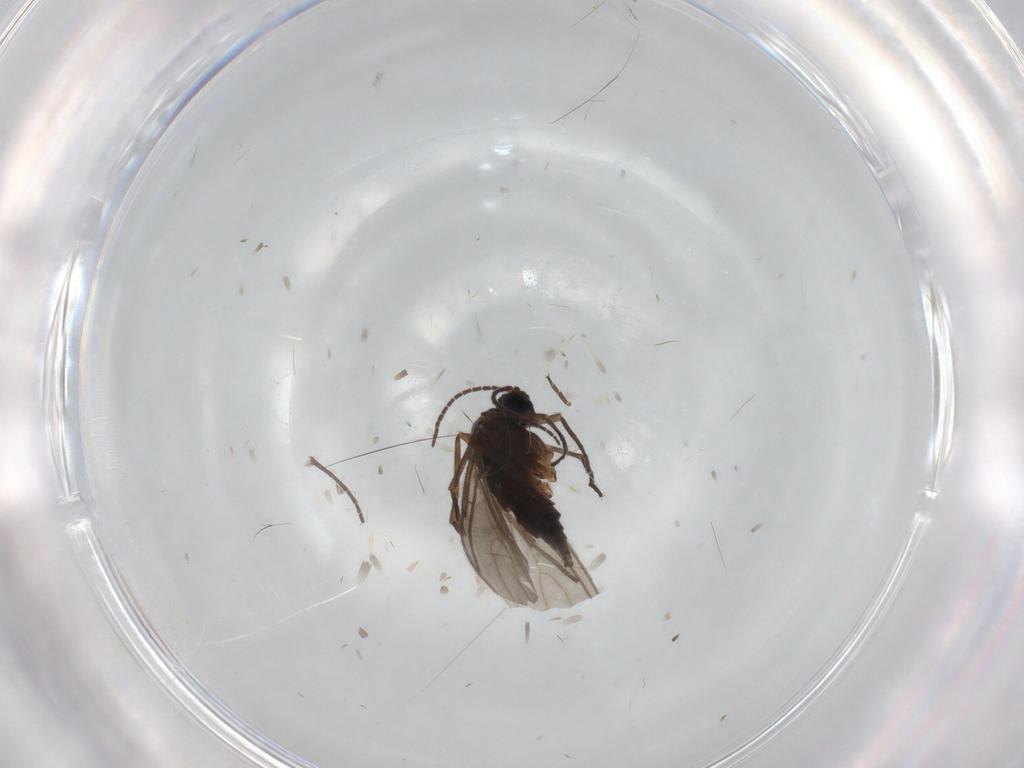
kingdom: Animalia
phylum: Arthropoda
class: Insecta
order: Diptera
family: Sciaridae
